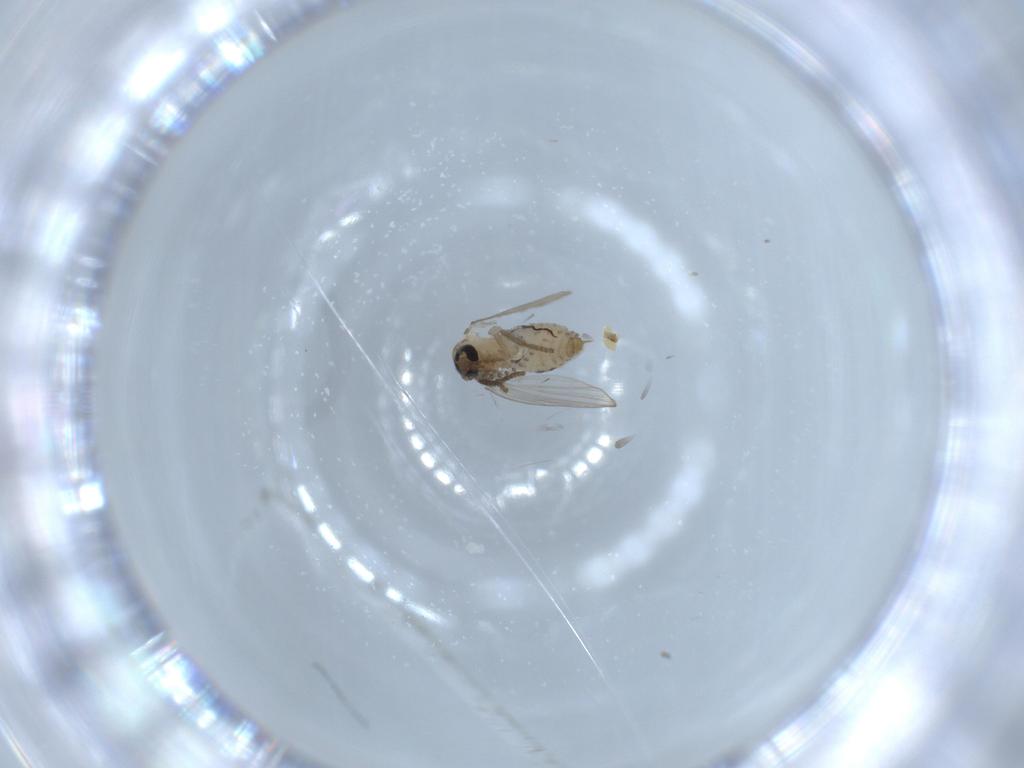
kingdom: Animalia
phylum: Arthropoda
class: Insecta
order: Diptera
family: Psychodidae
